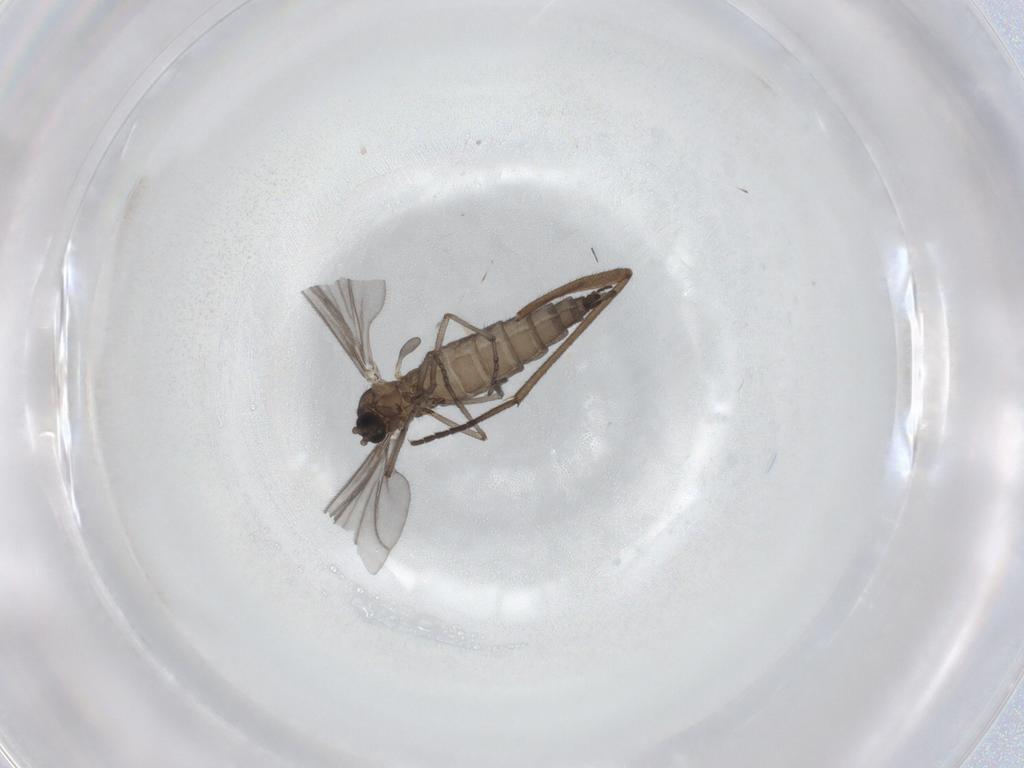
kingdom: Animalia
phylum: Arthropoda
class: Insecta
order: Diptera
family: Sciaridae
